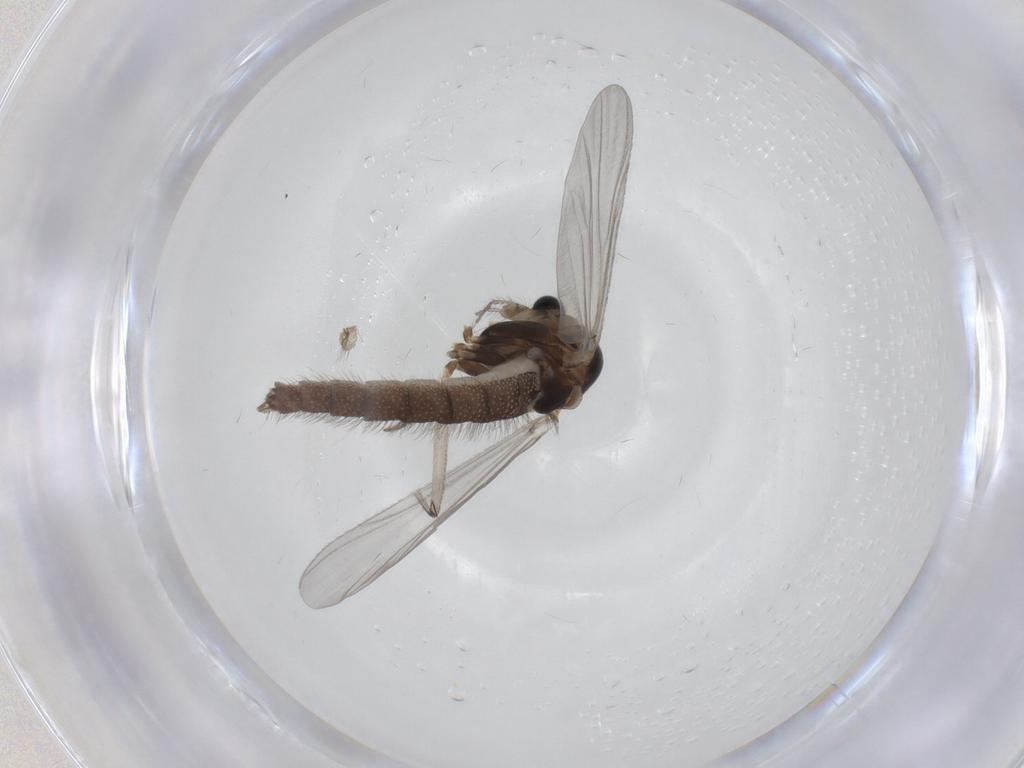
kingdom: Animalia
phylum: Arthropoda
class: Insecta
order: Diptera
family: Chironomidae
